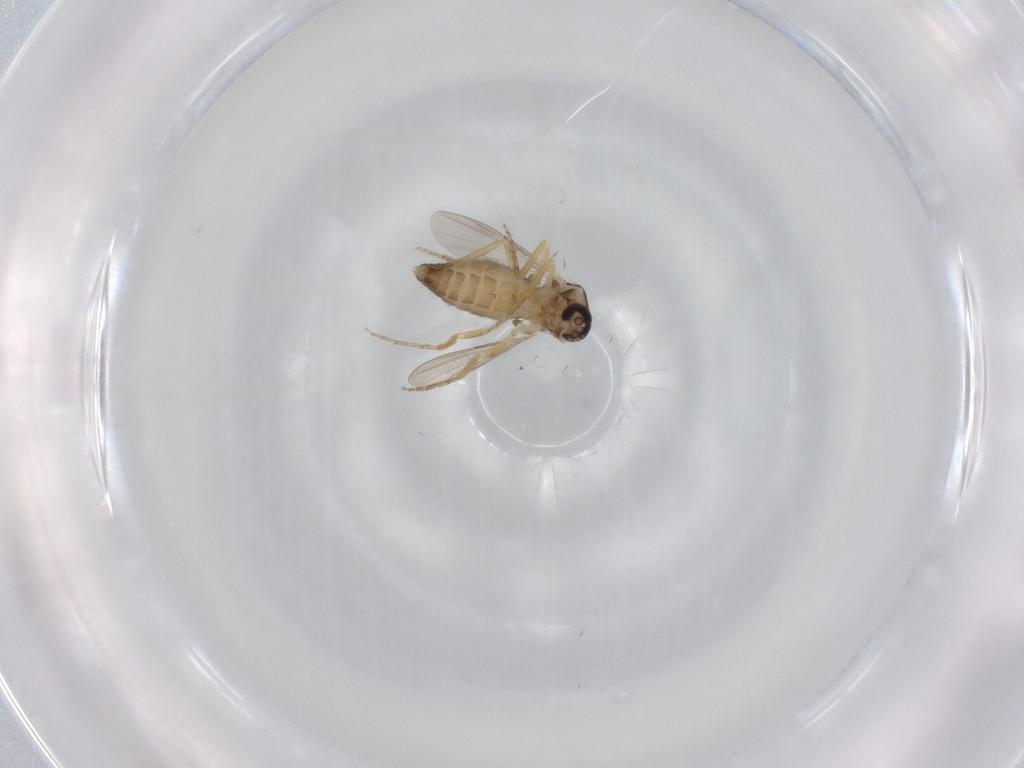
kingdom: Animalia
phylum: Arthropoda
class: Insecta
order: Diptera
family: Ceratopogonidae
